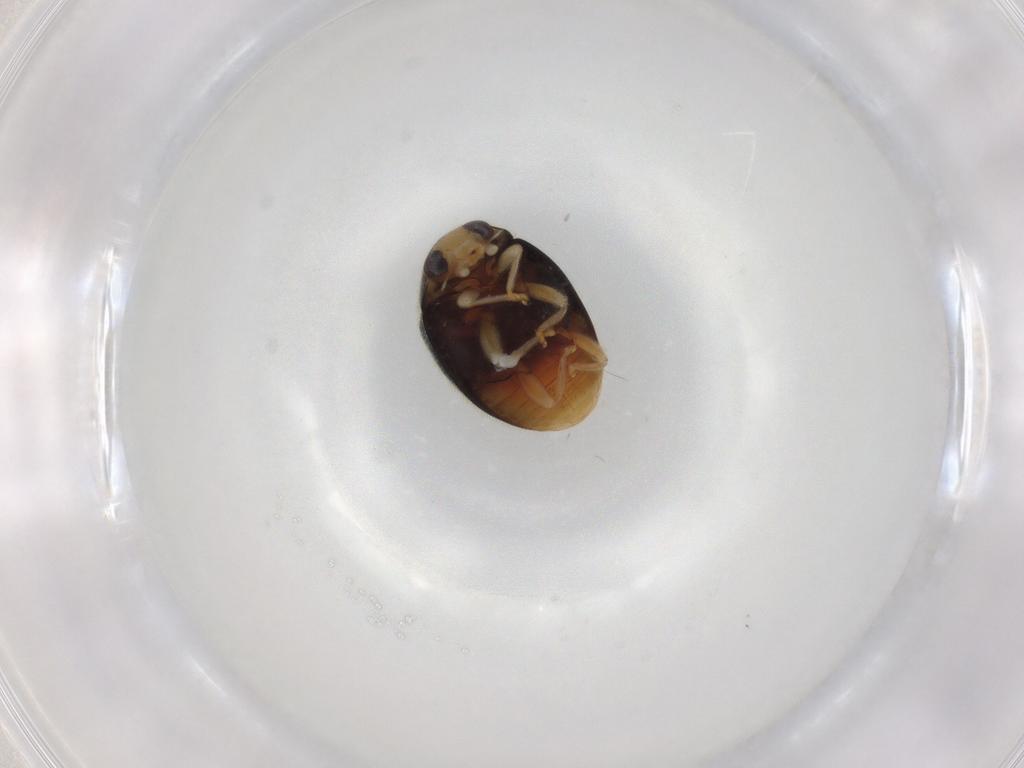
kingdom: Animalia
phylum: Arthropoda
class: Insecta
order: Coleoptera
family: Coccinellidae
